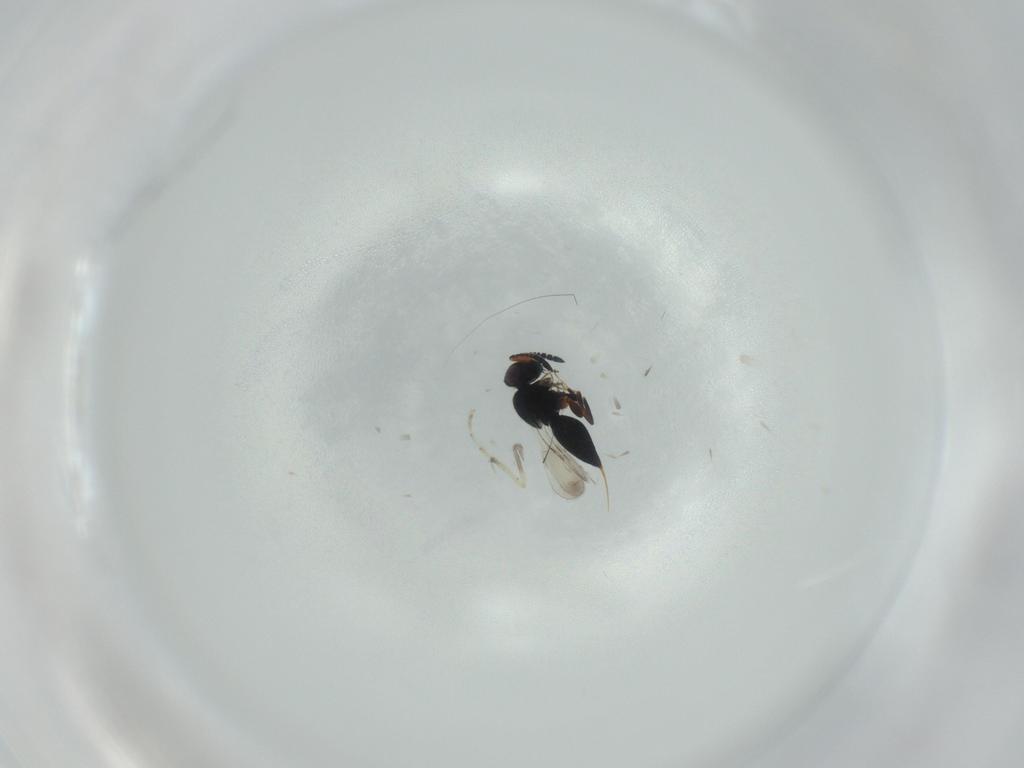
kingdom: Animalia
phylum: Arthropoda
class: Insecta
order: Hymenoptera
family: Ceraphronidae
